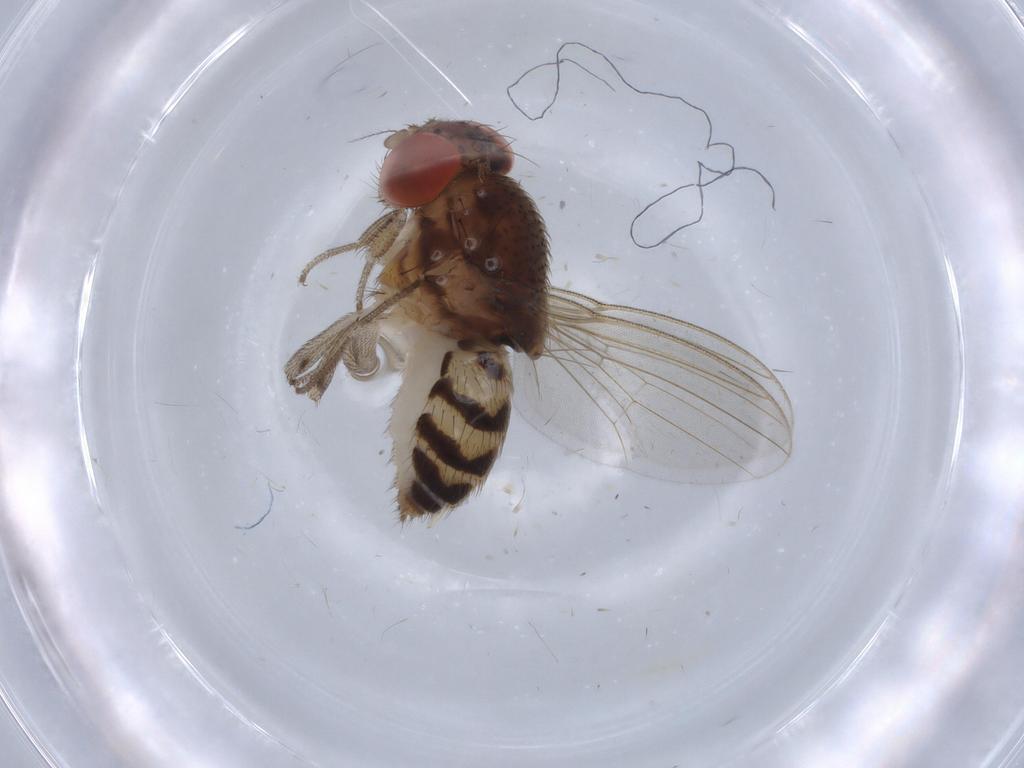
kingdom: Animalia
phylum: Arthropoda
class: Insecta
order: Diptera
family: Drosophilidae
